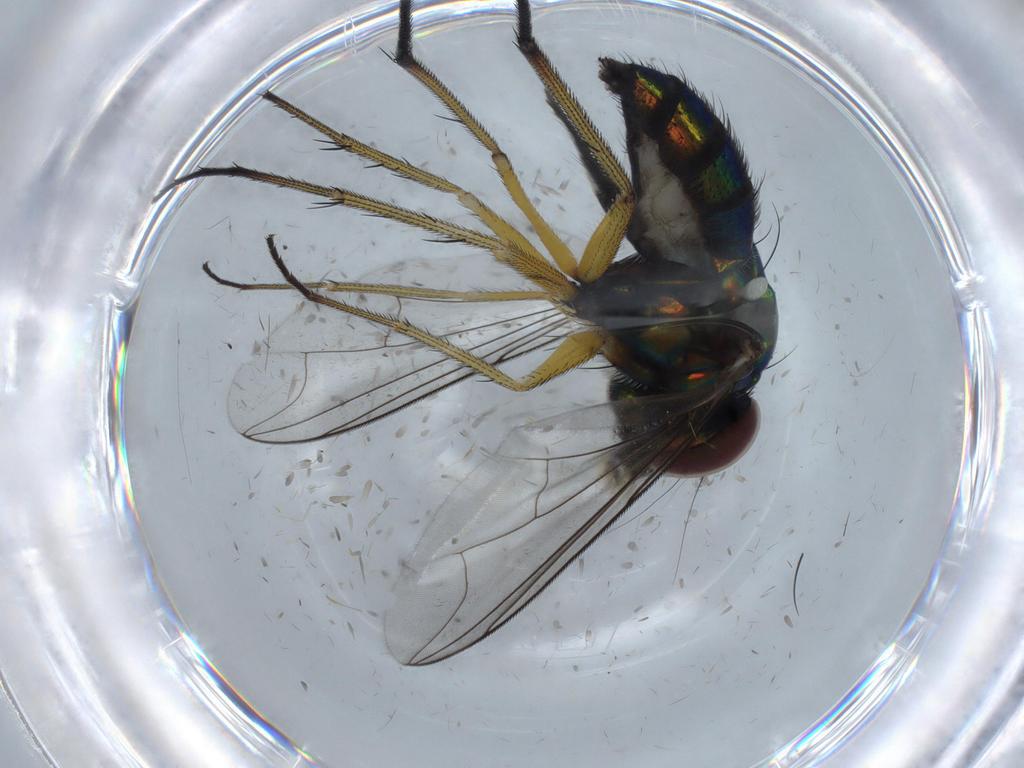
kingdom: Animalia
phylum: Arthropoda
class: Insecta
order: Diptera
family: Dolichopodidae
